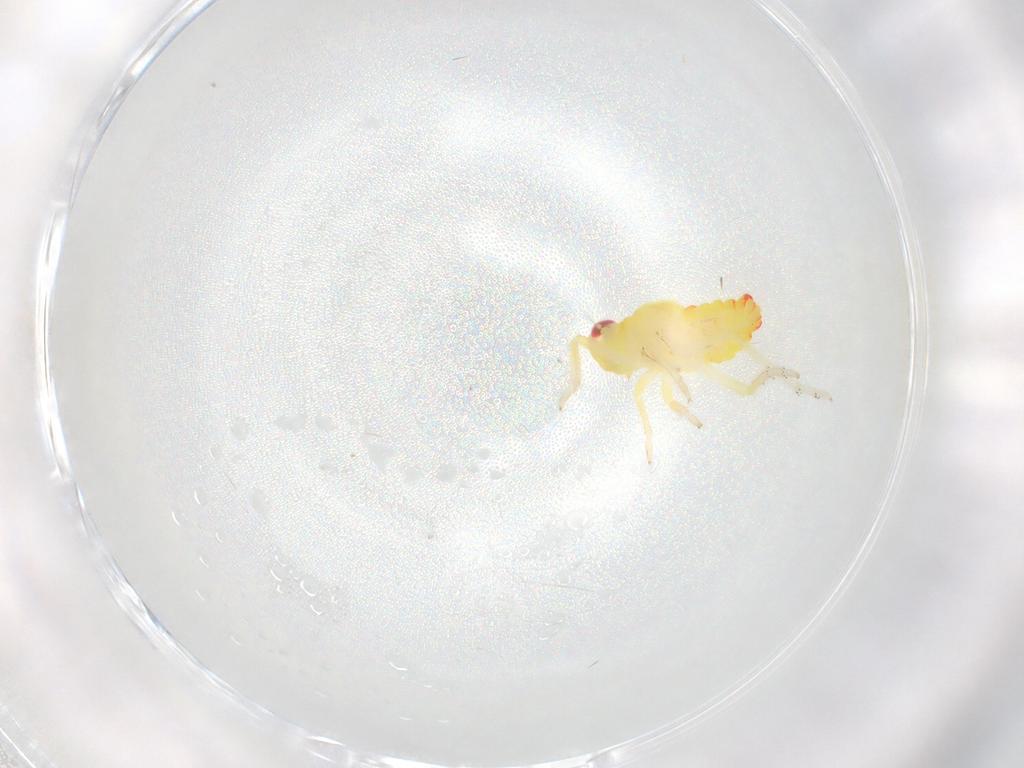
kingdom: Animalia
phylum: Arthropoda
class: Insecta
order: Hemiptera
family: Tropiduchidae
